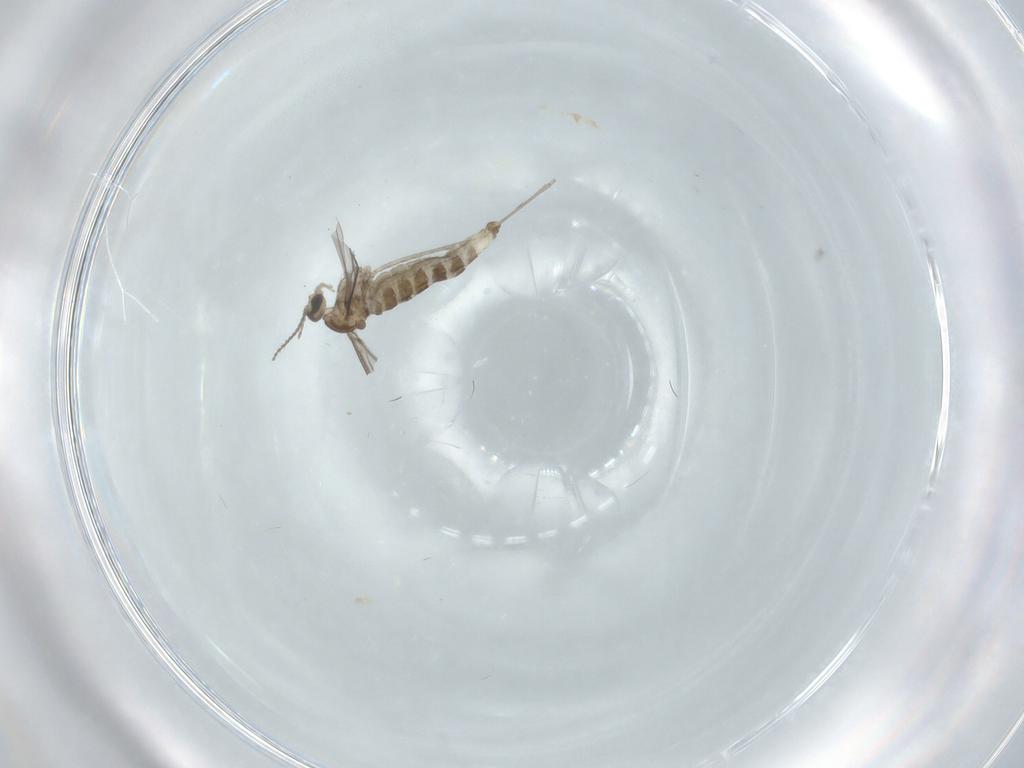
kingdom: Animalia
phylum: Arthropoda
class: Insecta
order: Diptera
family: Cecidomyiidae
